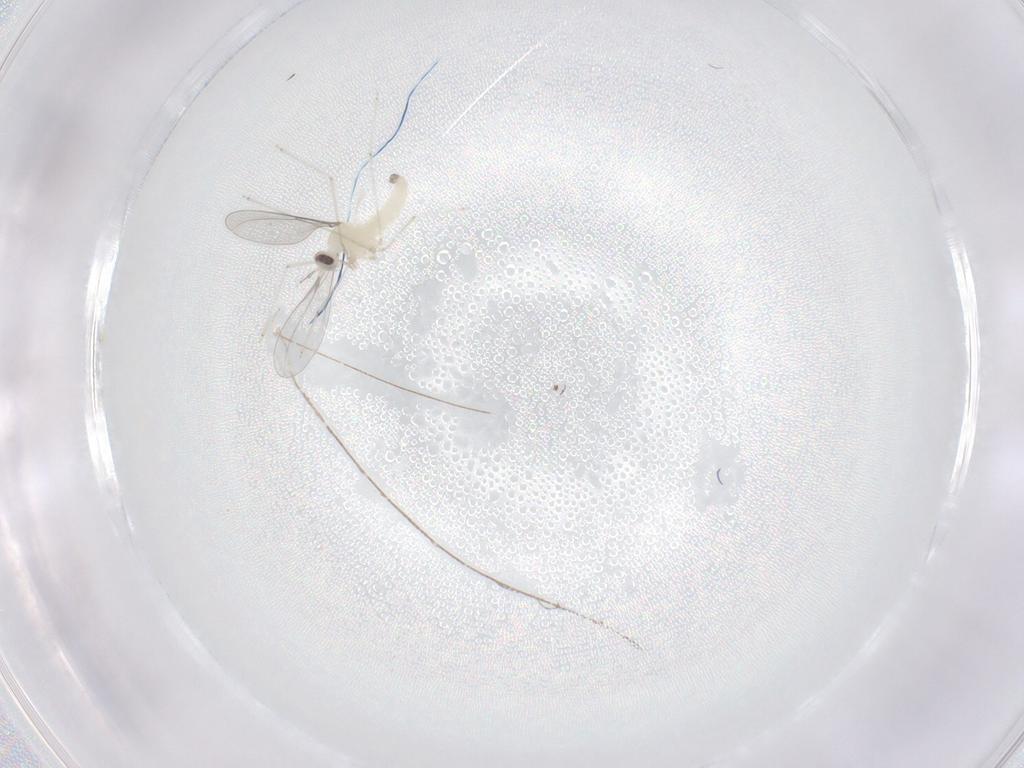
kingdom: Animalia
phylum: Arthropoda
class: Insecta
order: Diptera
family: Cecidomyiidae
